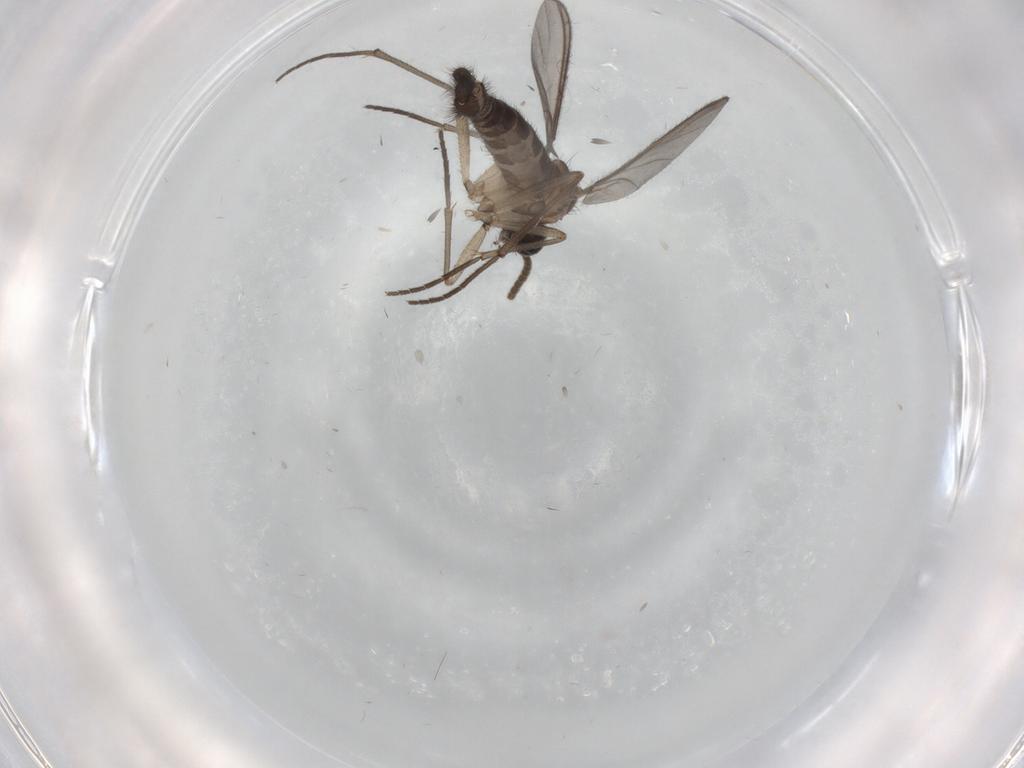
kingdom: Animalia
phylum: Arthropoda
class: Insecta
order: Diptera
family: Sciaridae
